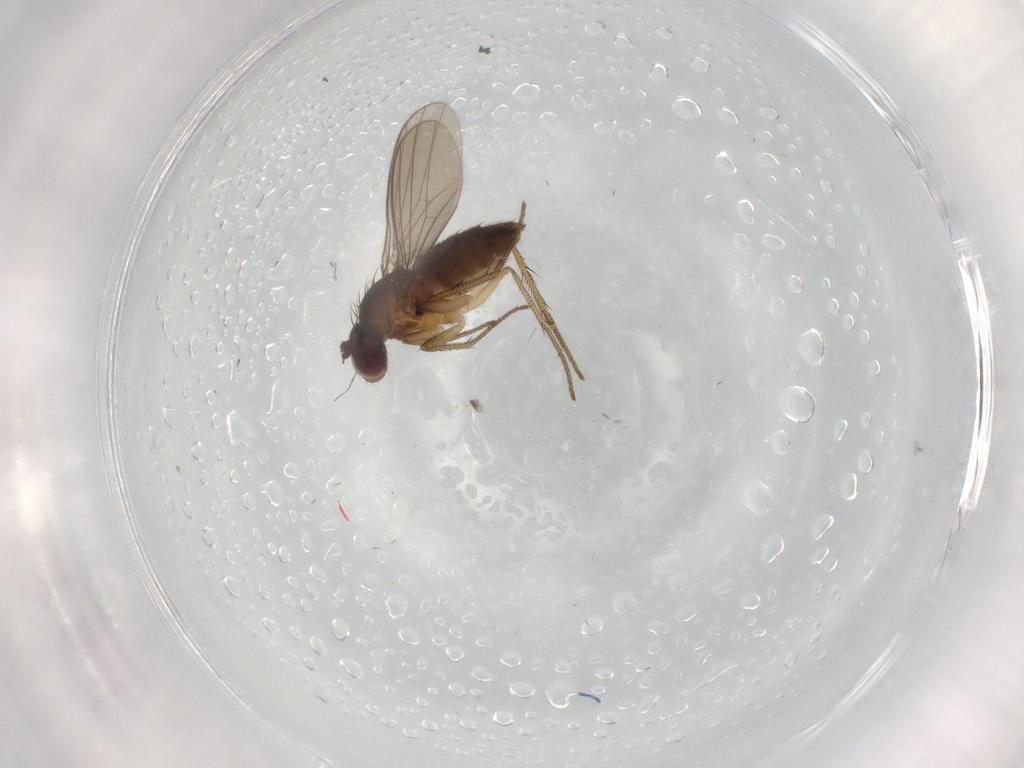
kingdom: Animalia
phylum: Arthropoda
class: Insecta
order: Diptera
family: Dolichopodidae
